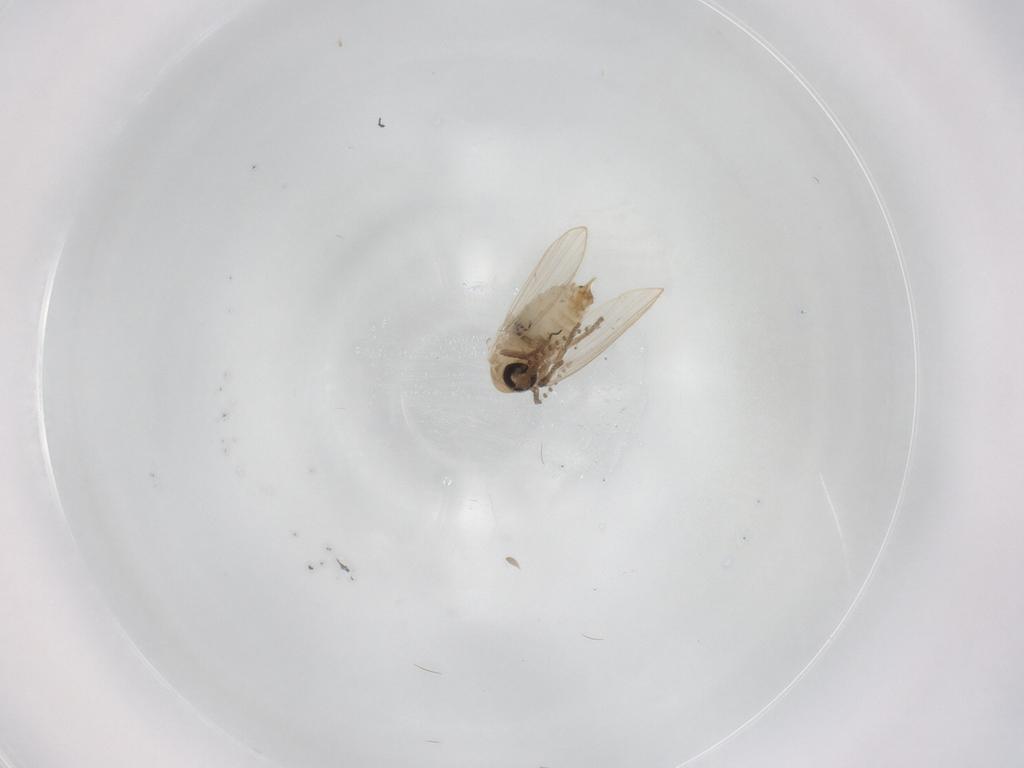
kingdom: Animalia
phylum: Arthropoda
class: Insecta
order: Diptera
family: Psychodidae
